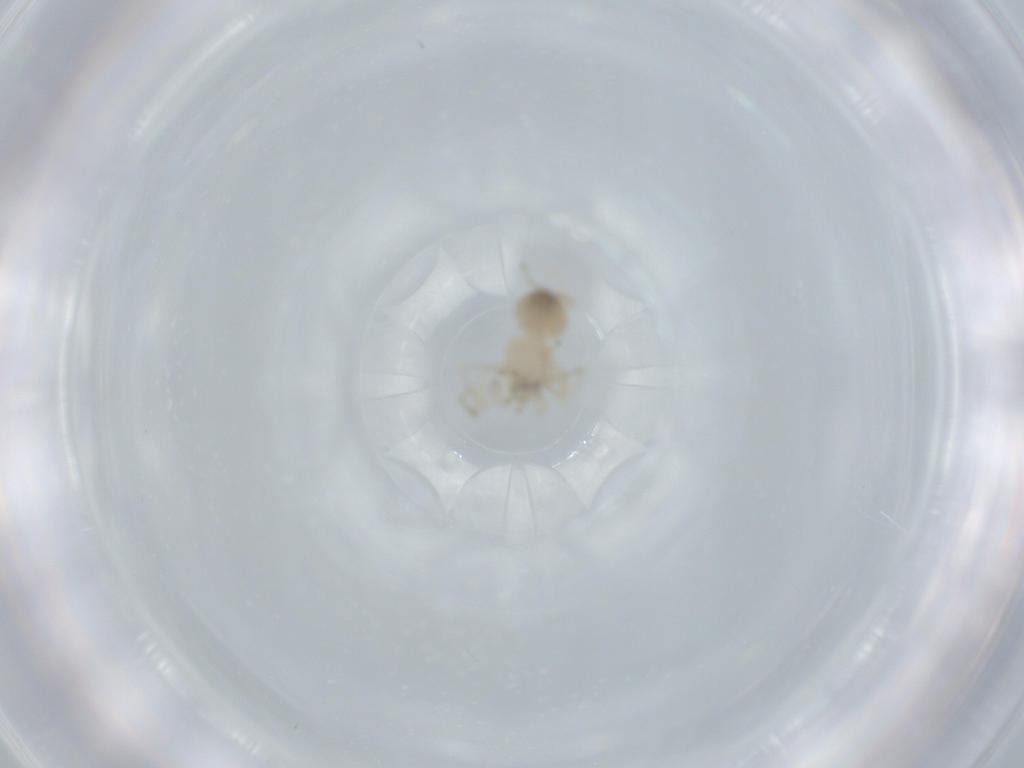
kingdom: Animalia
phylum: Arthropoda
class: Arachnida
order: Araneae
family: Oonopidae
